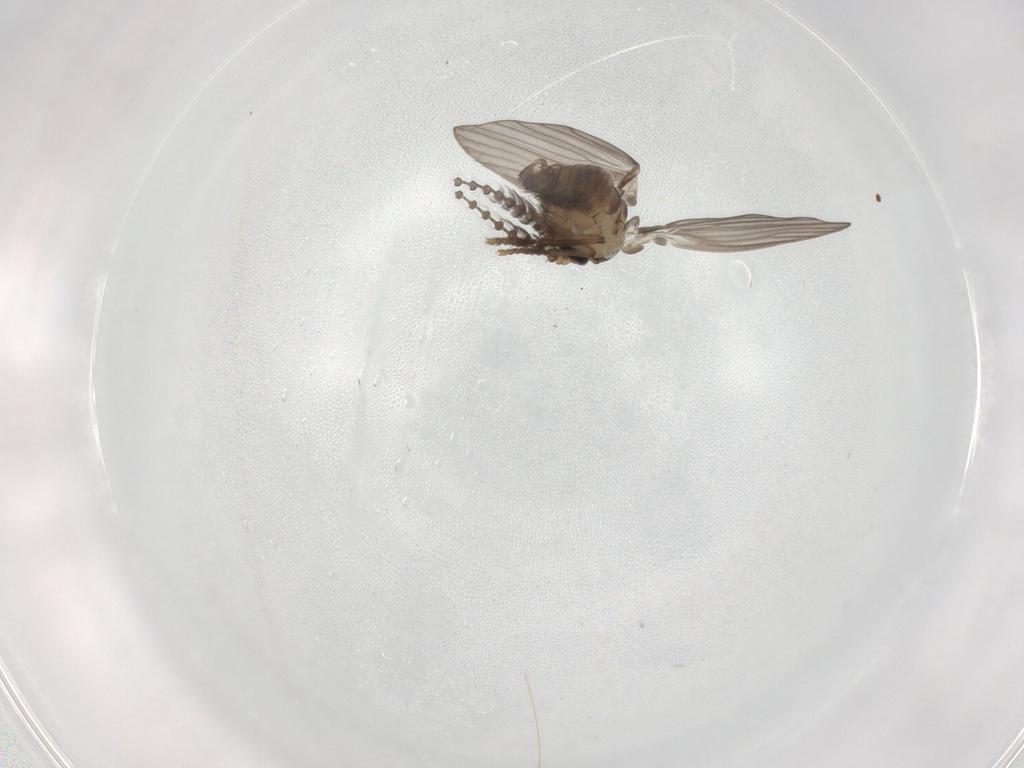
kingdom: Animalia
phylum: Arthropoda
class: Insecta
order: Diptera
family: Psychodidae
